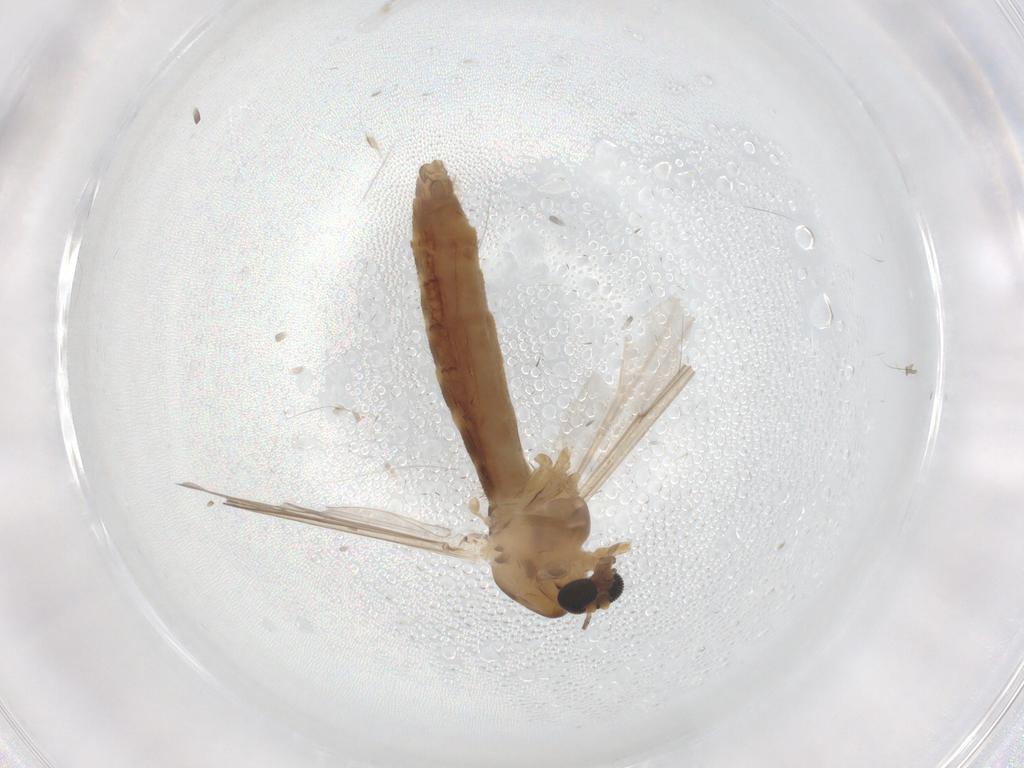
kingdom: Animalia
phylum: Arthropoda
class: Insecta
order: Diptera
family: Chironomidae
